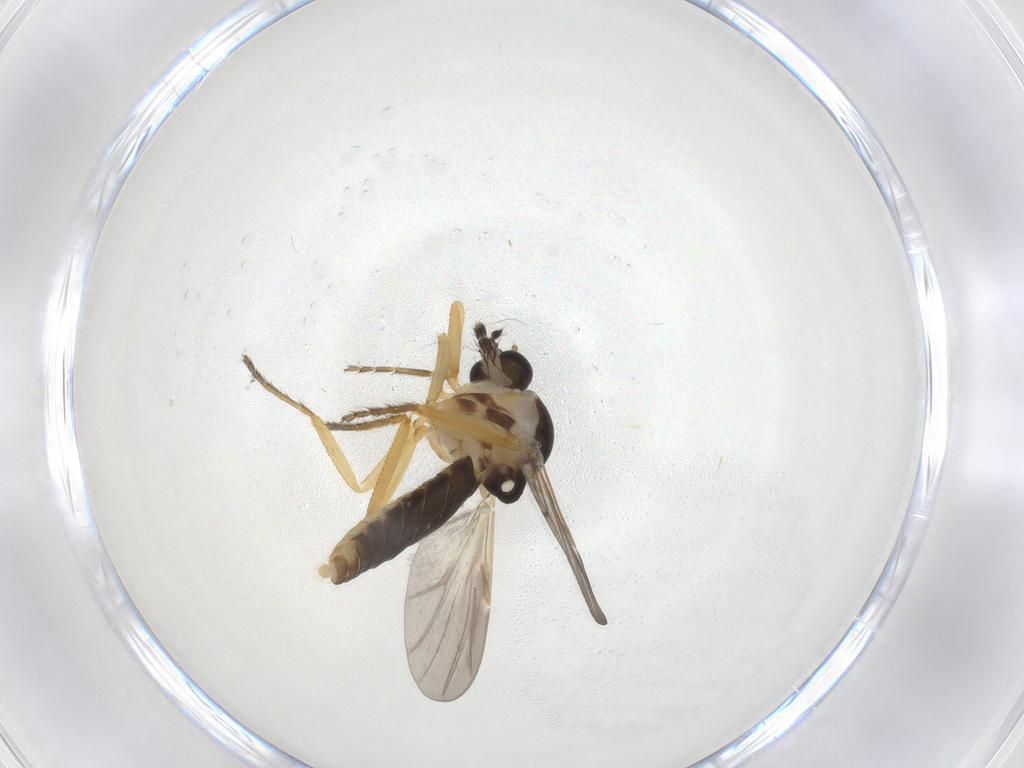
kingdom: Animalia
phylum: Arthropoda
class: Insecta
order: Diptera
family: Ceratopogonidae
